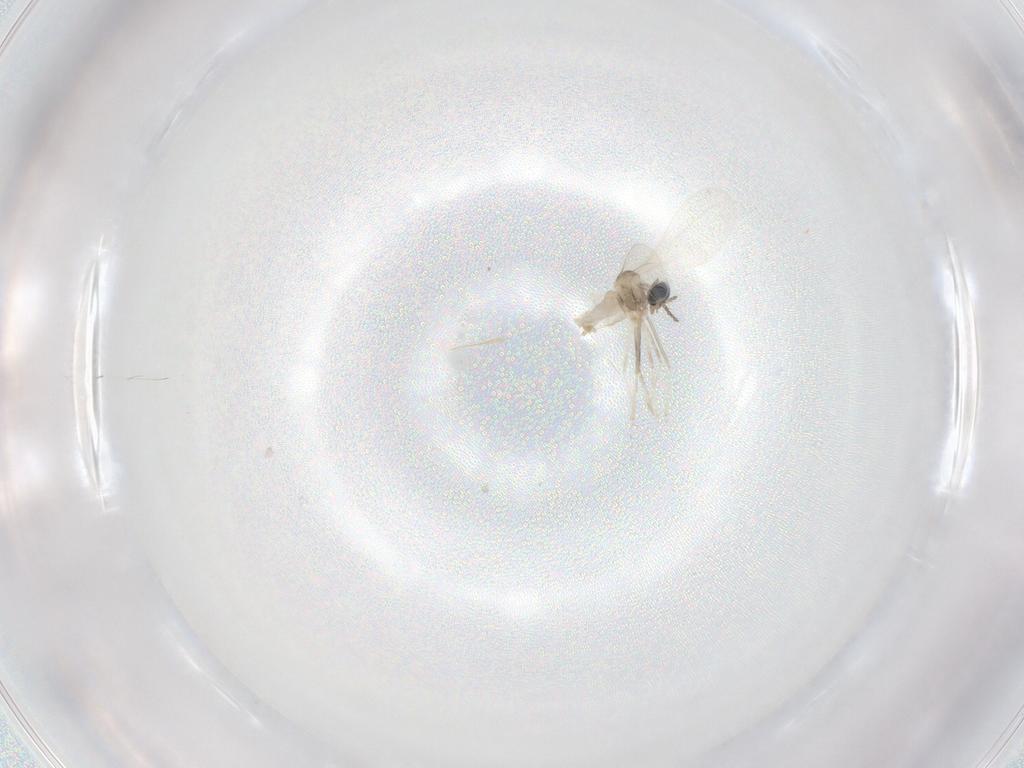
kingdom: Animalia
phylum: Arthropoda
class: Insecta
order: Diptera
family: Cecidomyiidae
